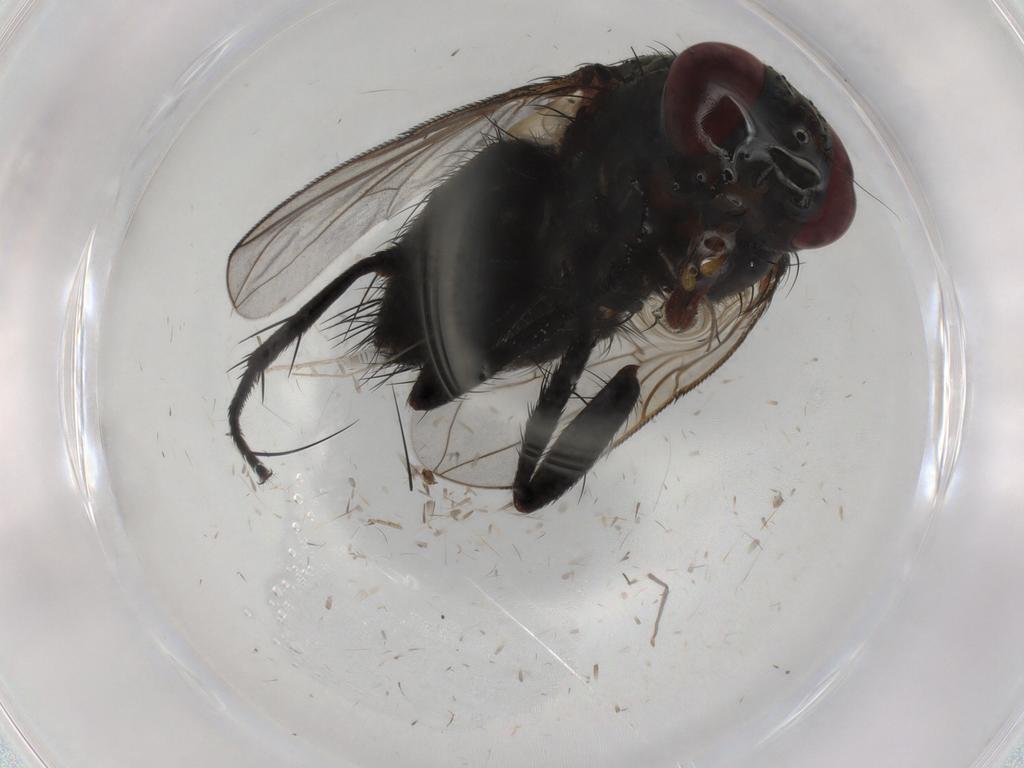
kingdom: Animalia
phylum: Arthropoda
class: Insecta
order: Diptera
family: Tachinidae
